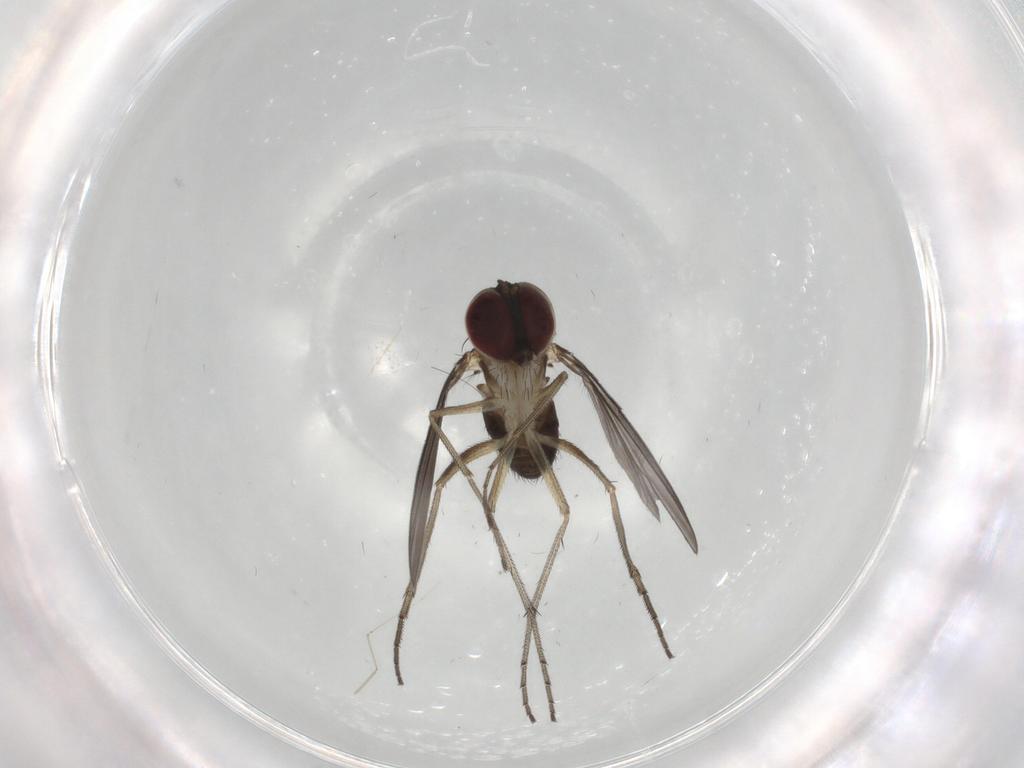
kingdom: Animalia
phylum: Arthropoda
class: Insecta
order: Diptera
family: Dolichopodidae
